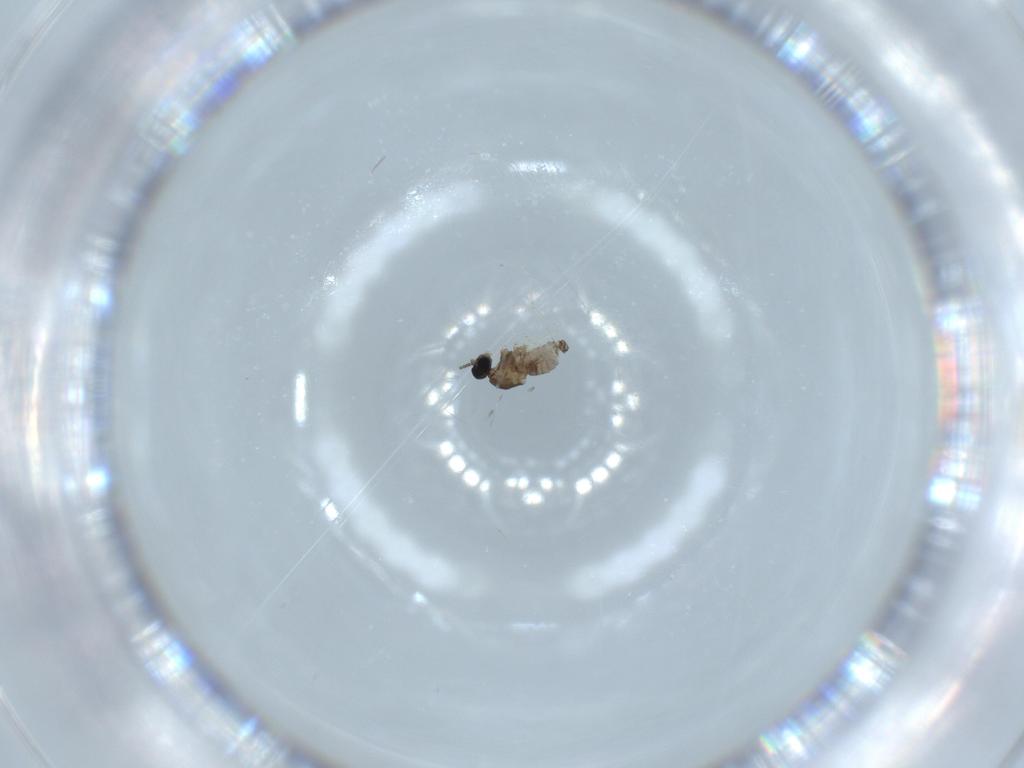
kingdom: Animalia
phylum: Arthropoda
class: Insecta
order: Diptera
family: Cecidomyiidae
